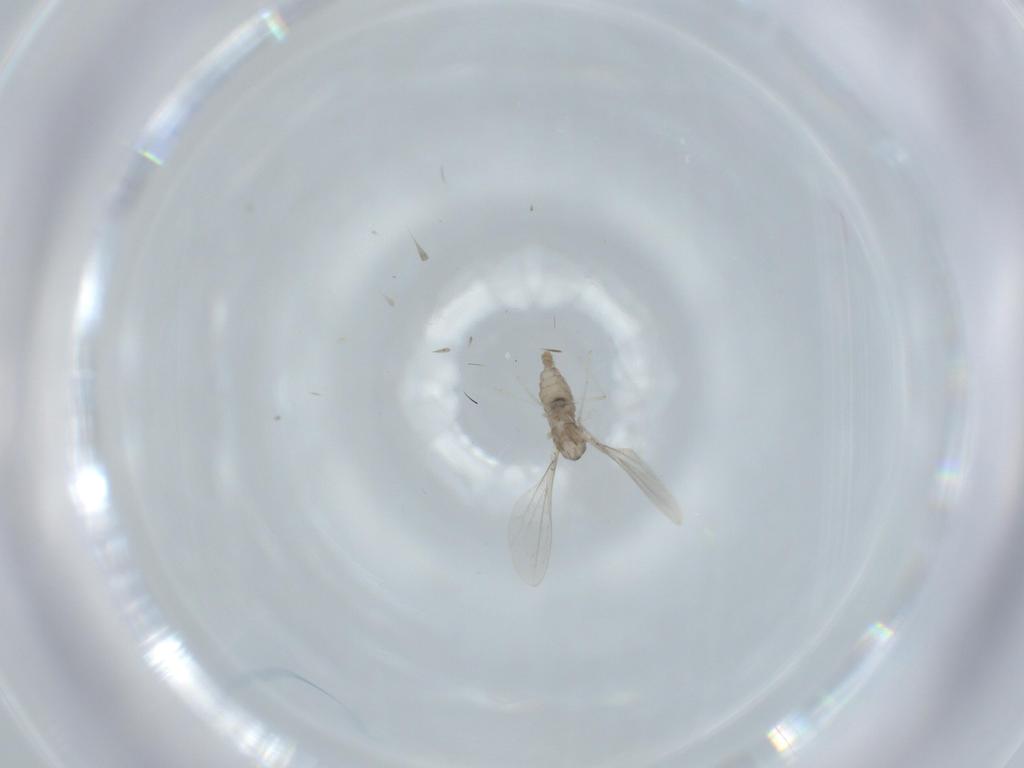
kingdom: Animalia
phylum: Arthropoda
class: Insecta
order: Diptera
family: Cecidomyiidae
